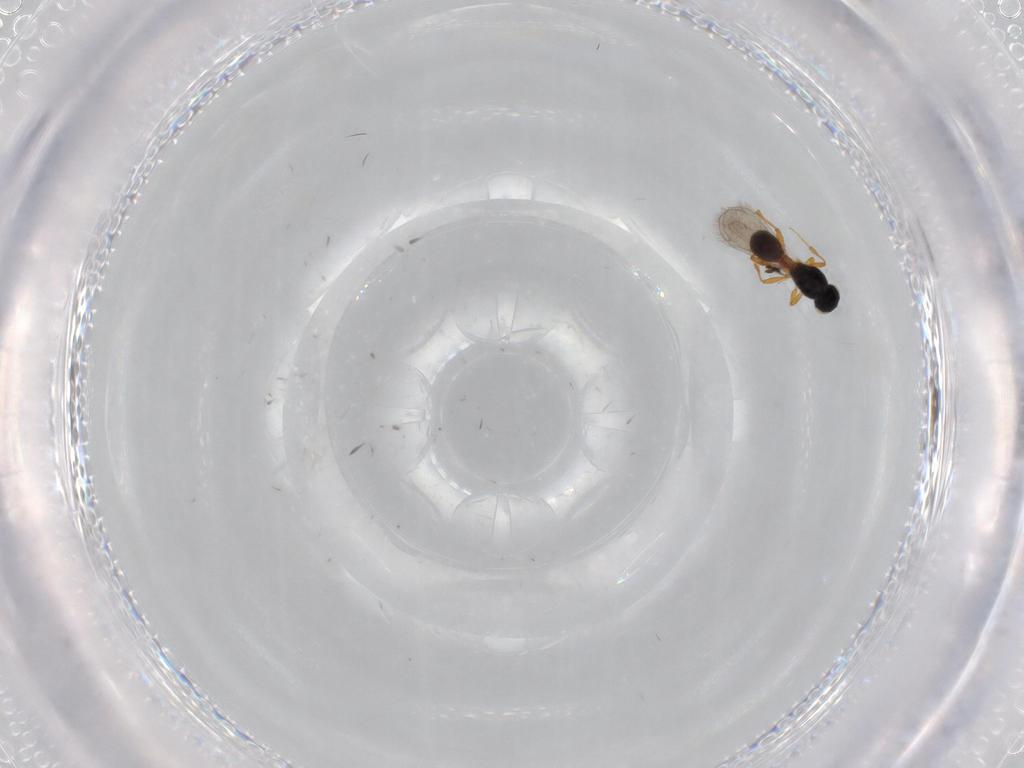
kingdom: Animalia
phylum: Arthropoda
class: Insecta
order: Hymenoptera
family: Platygastridae
